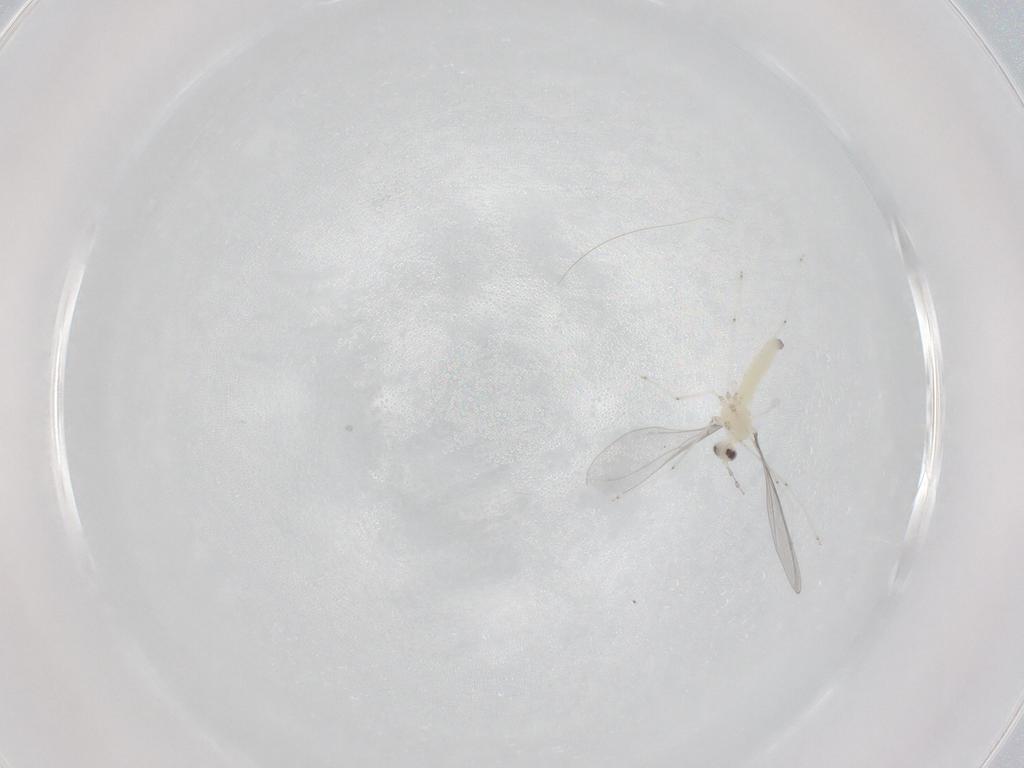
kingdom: Animalia
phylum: Arthropoda
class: Insecta
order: Diptera
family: Cecidomyiidae
